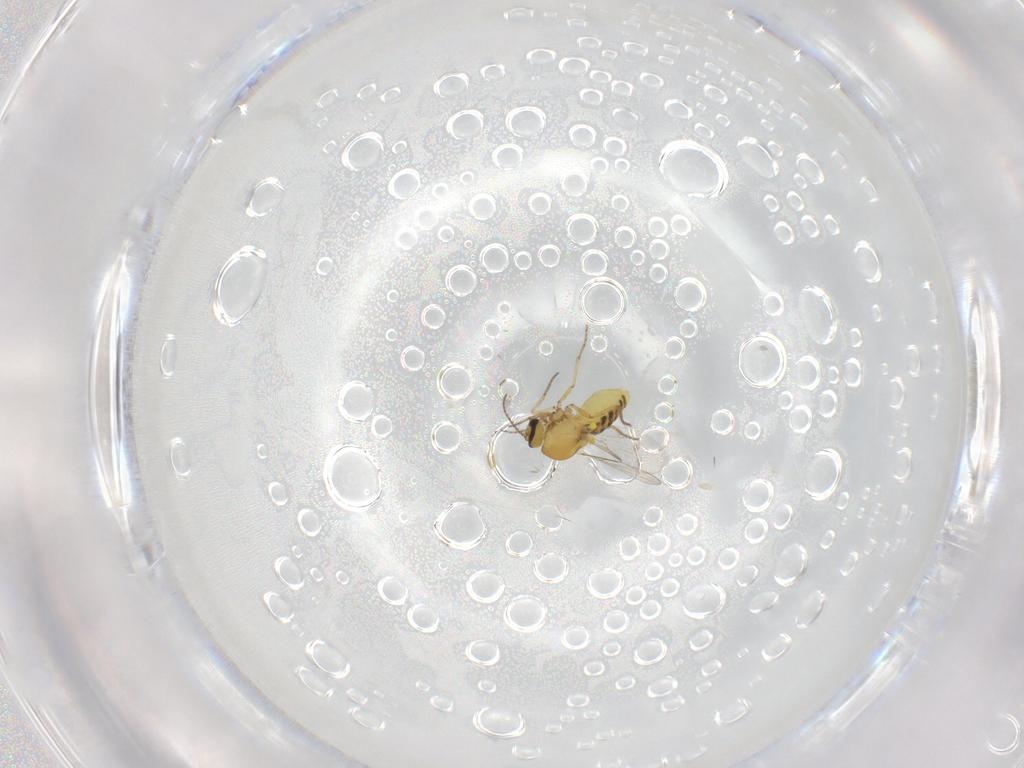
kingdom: Animalia
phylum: Arthropoda
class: Insecta
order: Diptera
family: Ceratopogonidae
